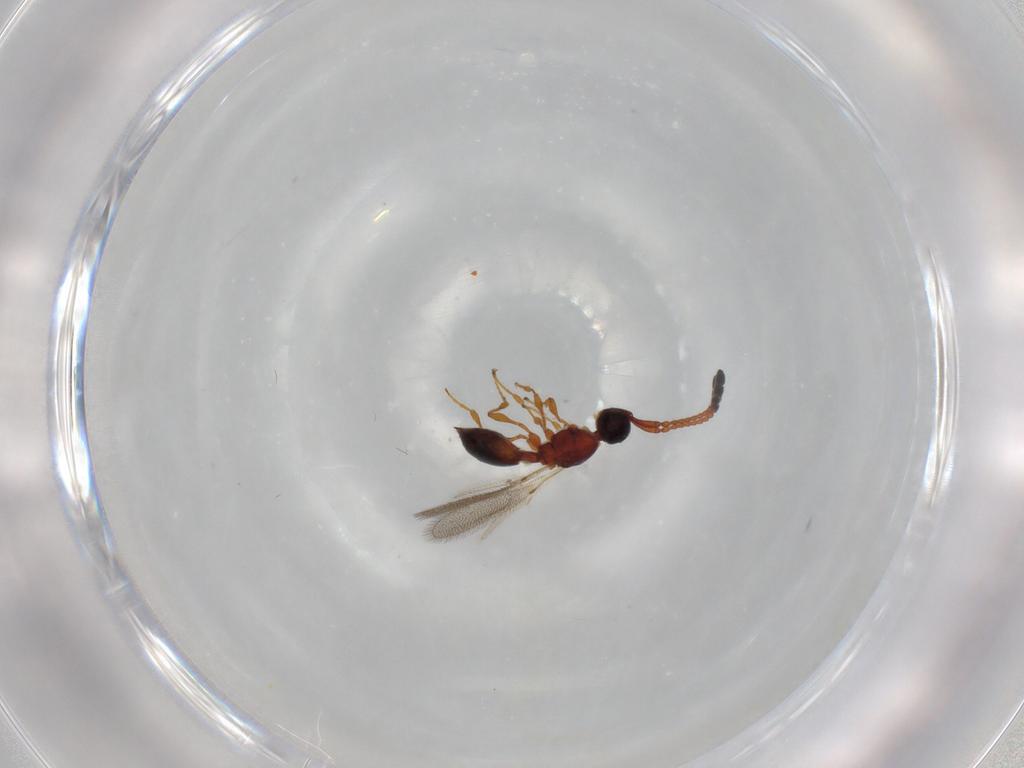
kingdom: Animalia
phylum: Arthropoda
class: Insecta
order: Hymenoptera
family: Diapriidae
